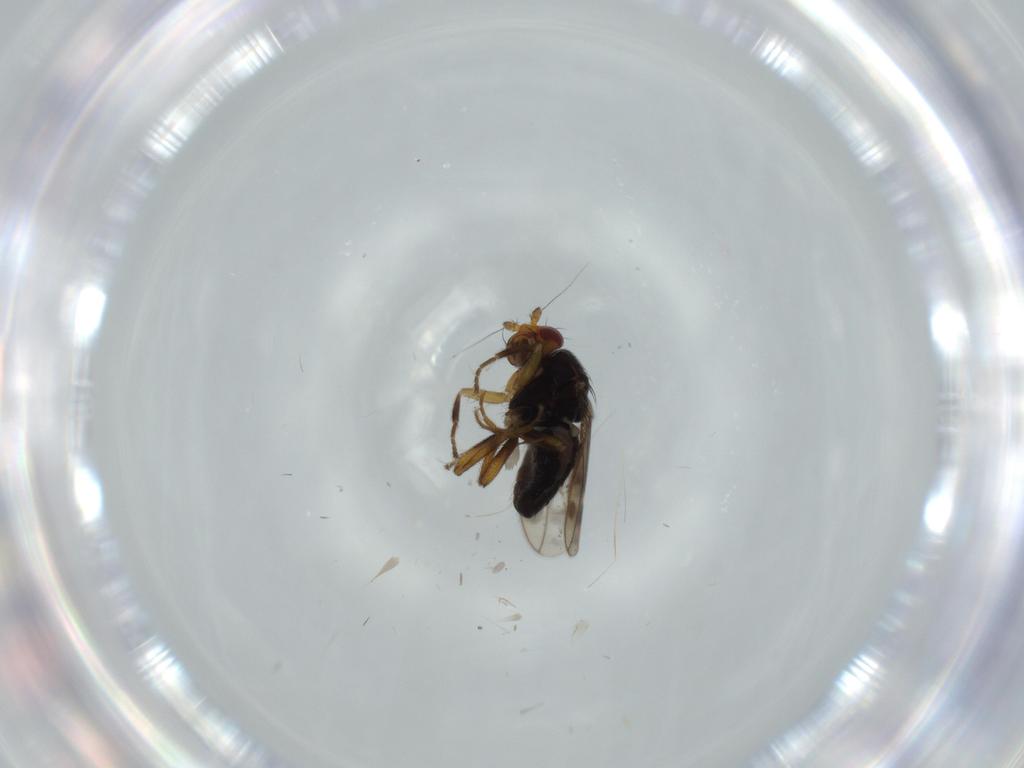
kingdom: Animalia
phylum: Arthropoda
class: Insecta
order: Diptera
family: Sphaeroceridae
